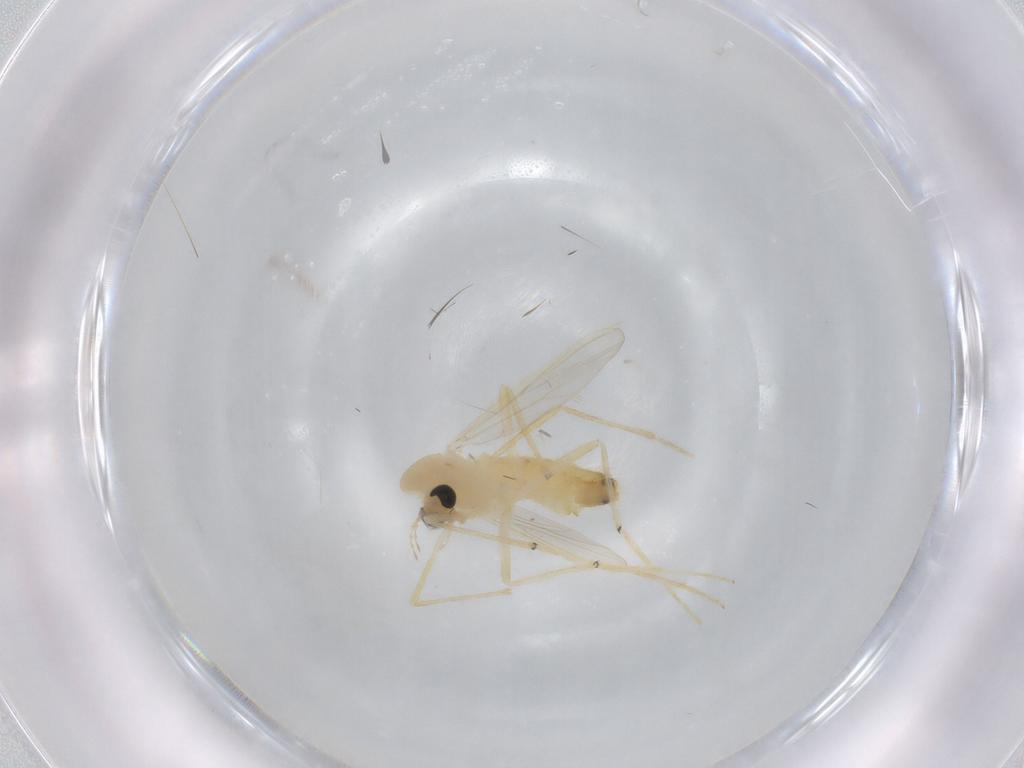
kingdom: Animalia
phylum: Arthropoda
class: Insecta
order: Diptera
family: Chironomidae
